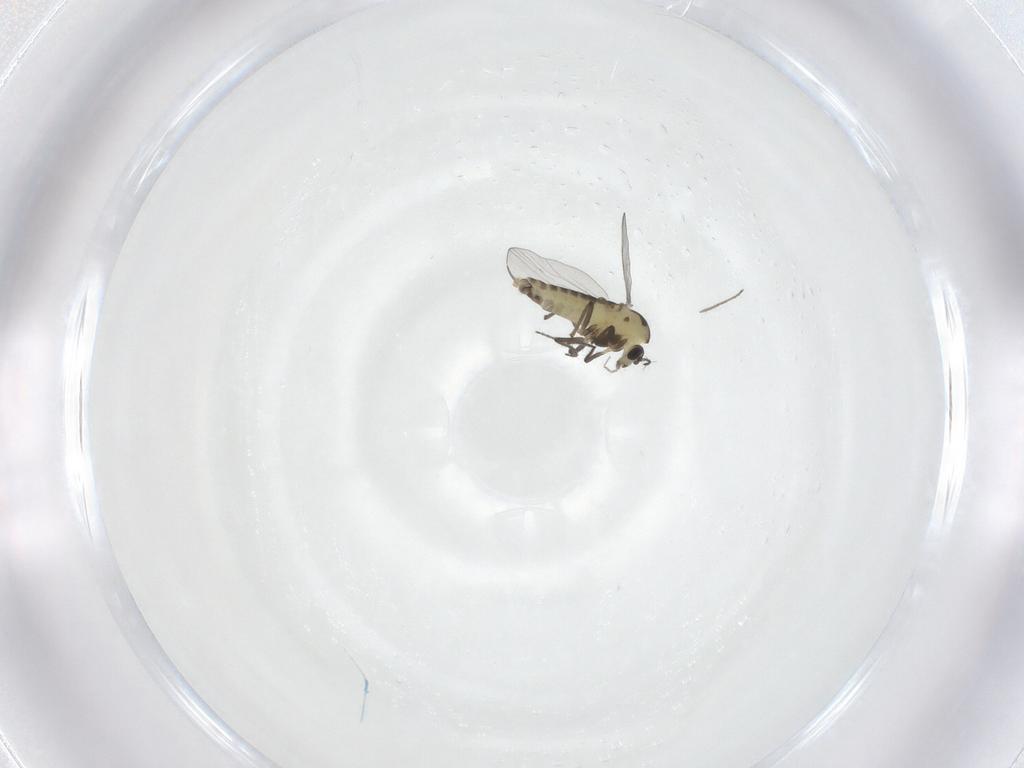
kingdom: Animalia
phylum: Arthropoda
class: Insecta
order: Diptera
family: Chironomidae
